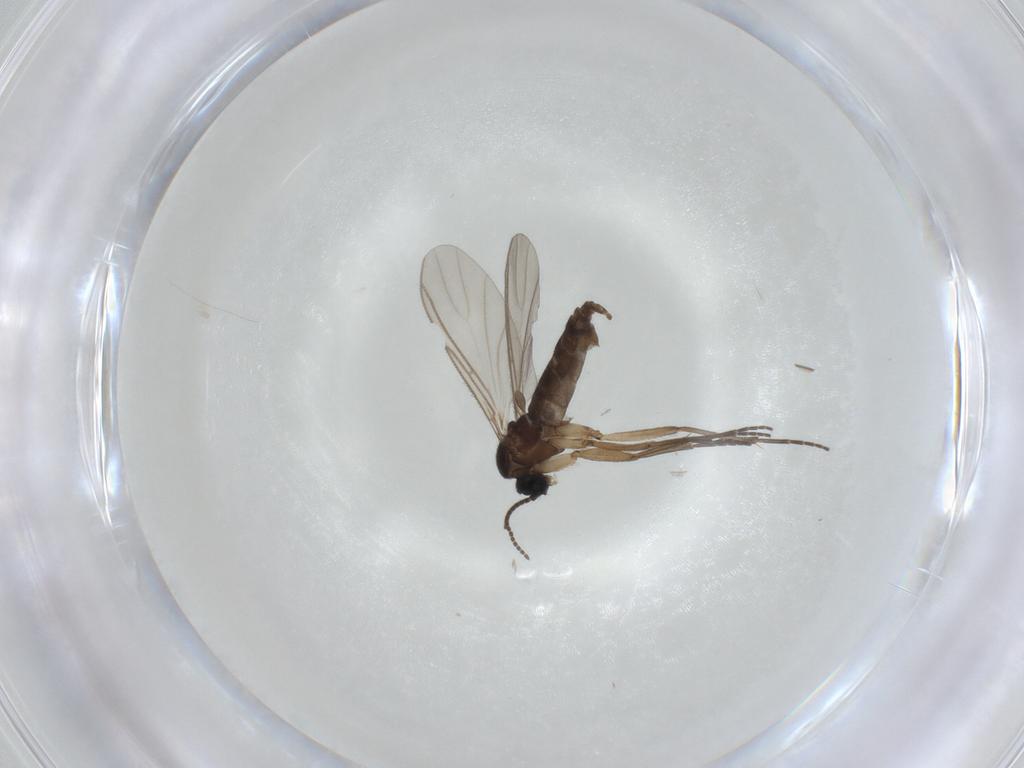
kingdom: Animalia
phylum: Arthropoda
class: Insecta
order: Diptera
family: Sciaridae
